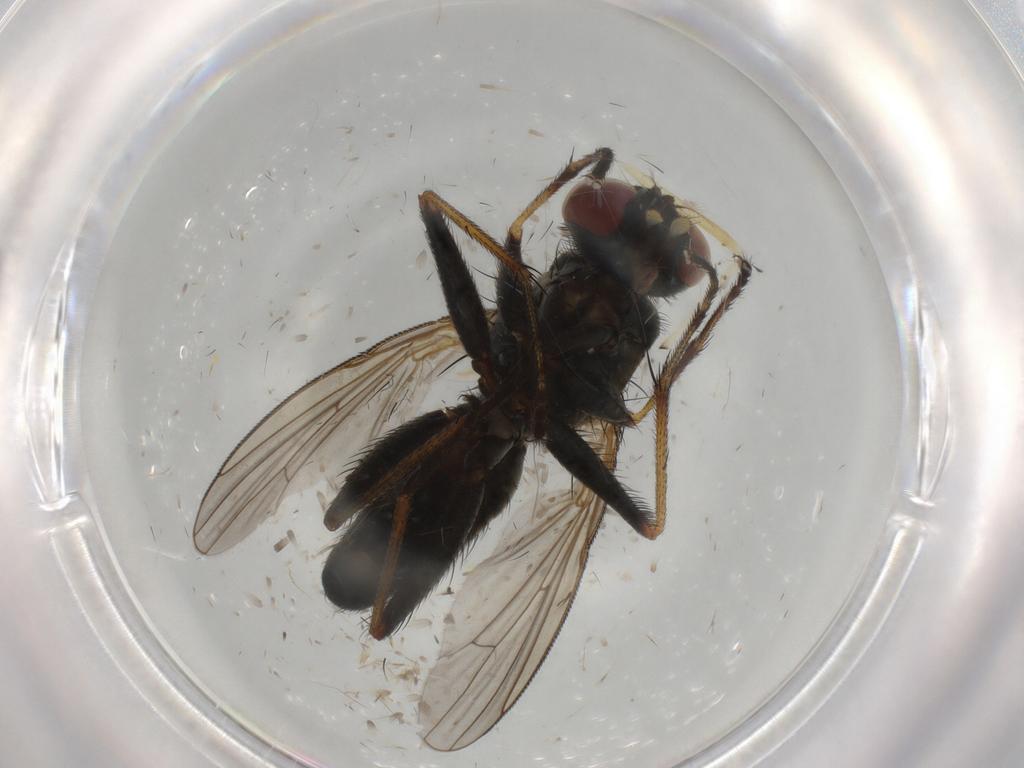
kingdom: Animalia
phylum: Arthropoda
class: Insecta
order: Diptera
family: Muscidae
